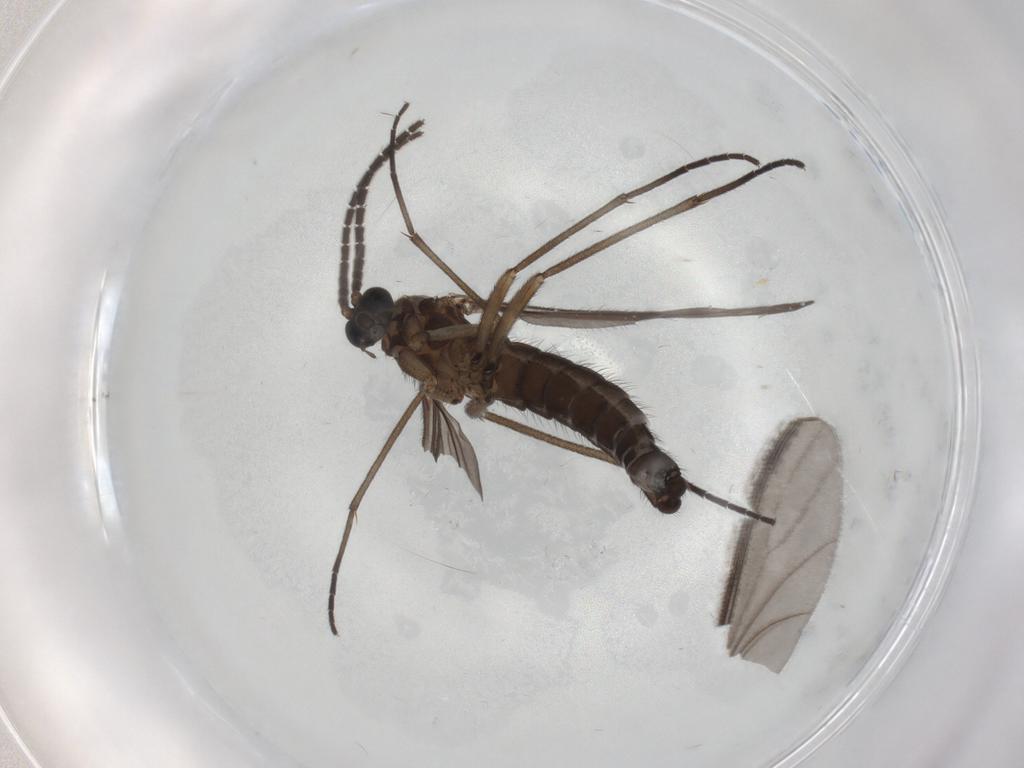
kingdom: Animalia
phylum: Arthropoda
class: Insecta
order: Diptera
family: Sciaridae
